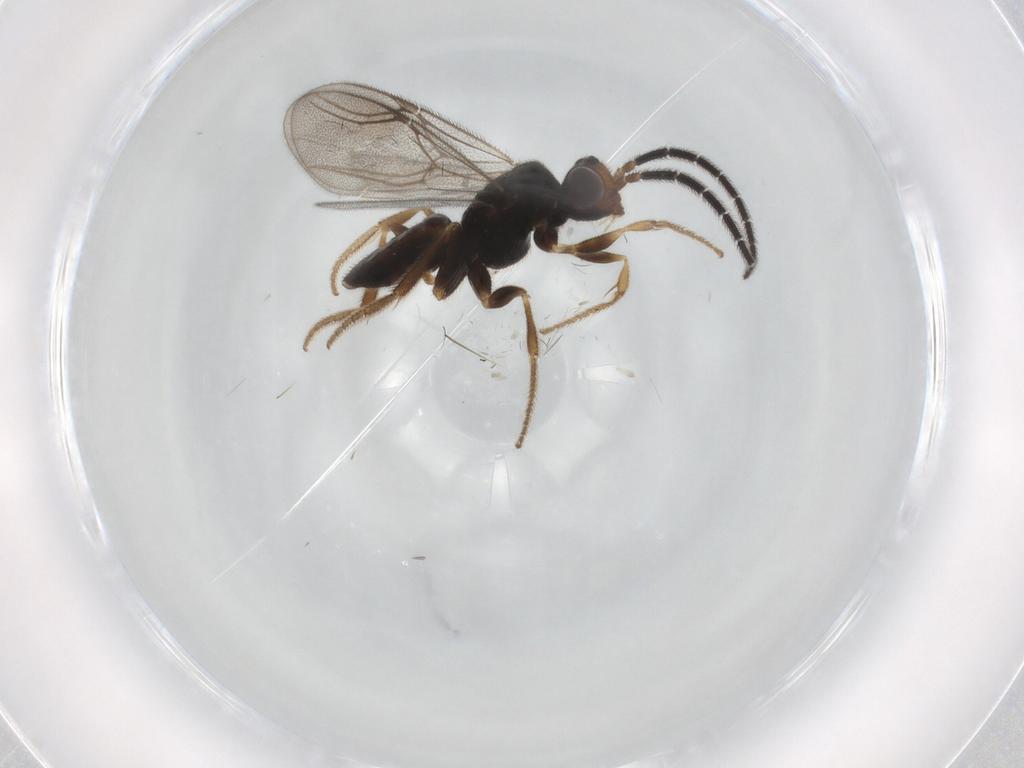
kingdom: Animalia
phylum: Arthropoda
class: Insecta
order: Hymenoptera
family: Dryinidae
